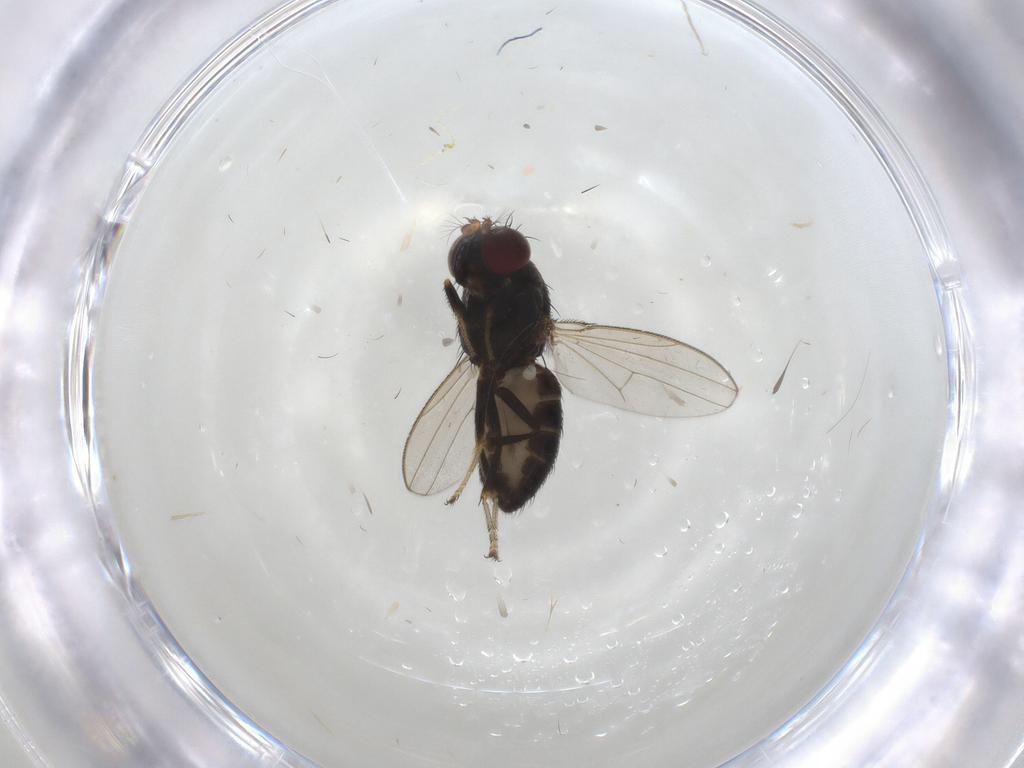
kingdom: Animalia
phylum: Arthropoda
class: Insecta
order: Diptera
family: Ephydridae
